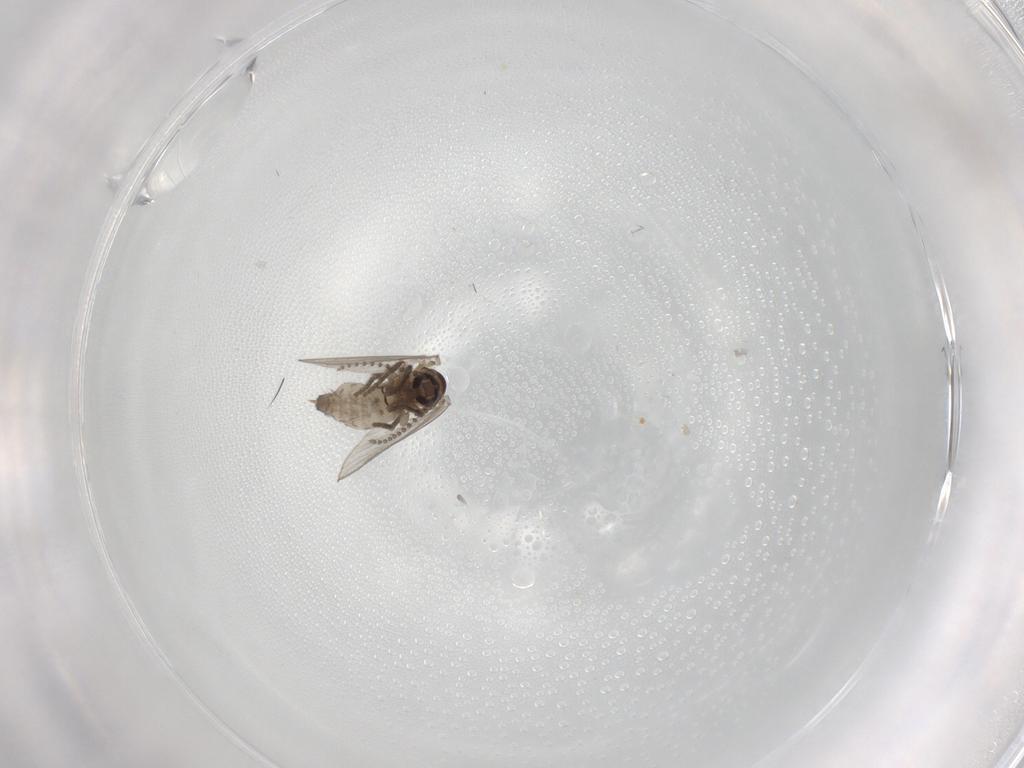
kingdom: Animalia
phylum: Arthropoda
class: Insecta
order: Diptera
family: Psychodidae
